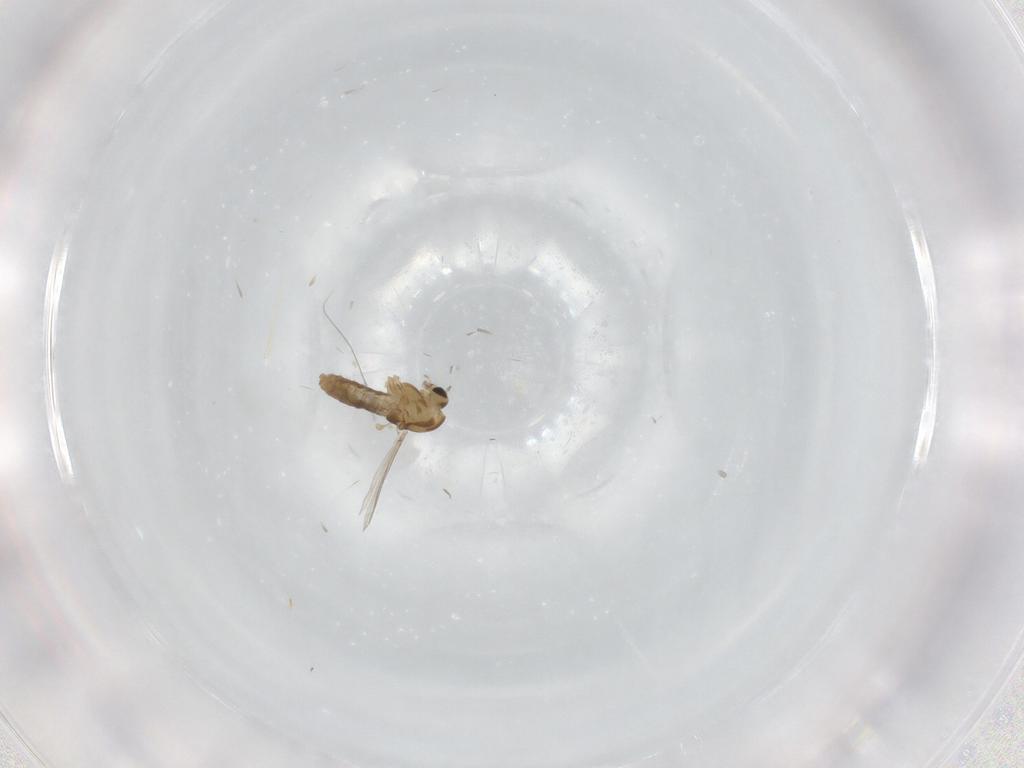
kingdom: Animalia
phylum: Arthropoda
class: Insecta
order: Diptera
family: Chironomidae
